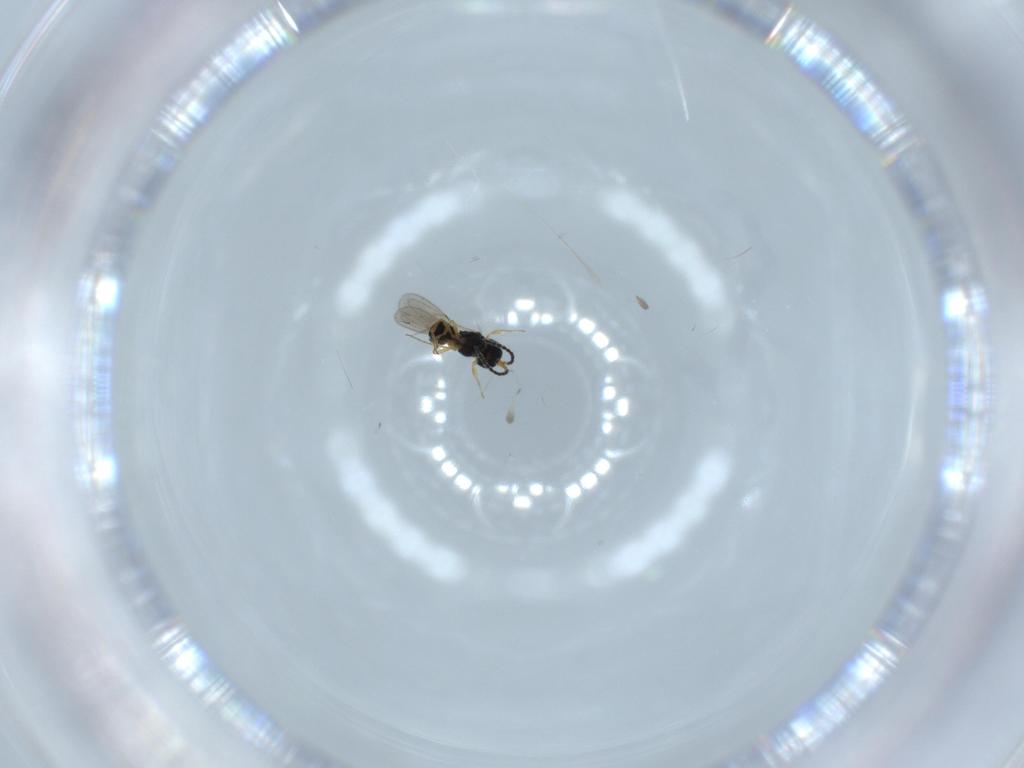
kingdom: Animalia
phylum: Arthropoda
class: Insecta
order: Hymenoptera
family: Scelionidae
